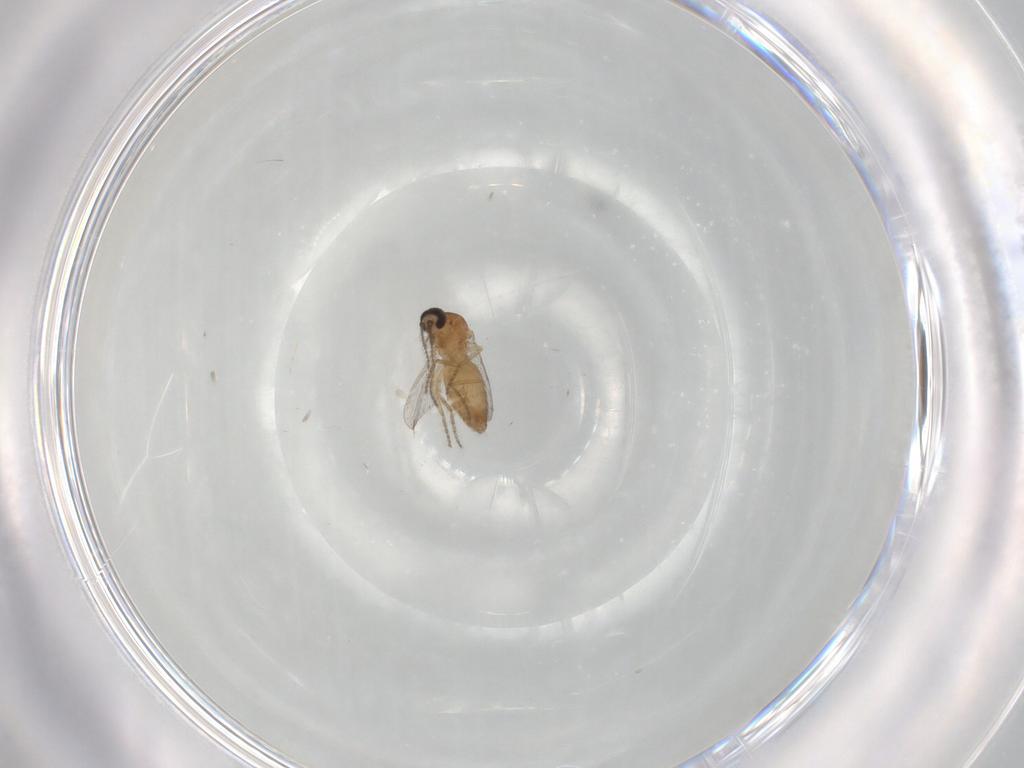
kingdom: Animalia
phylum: Arthropoda
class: Insecta
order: Diptera
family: Ceratopogonidae
